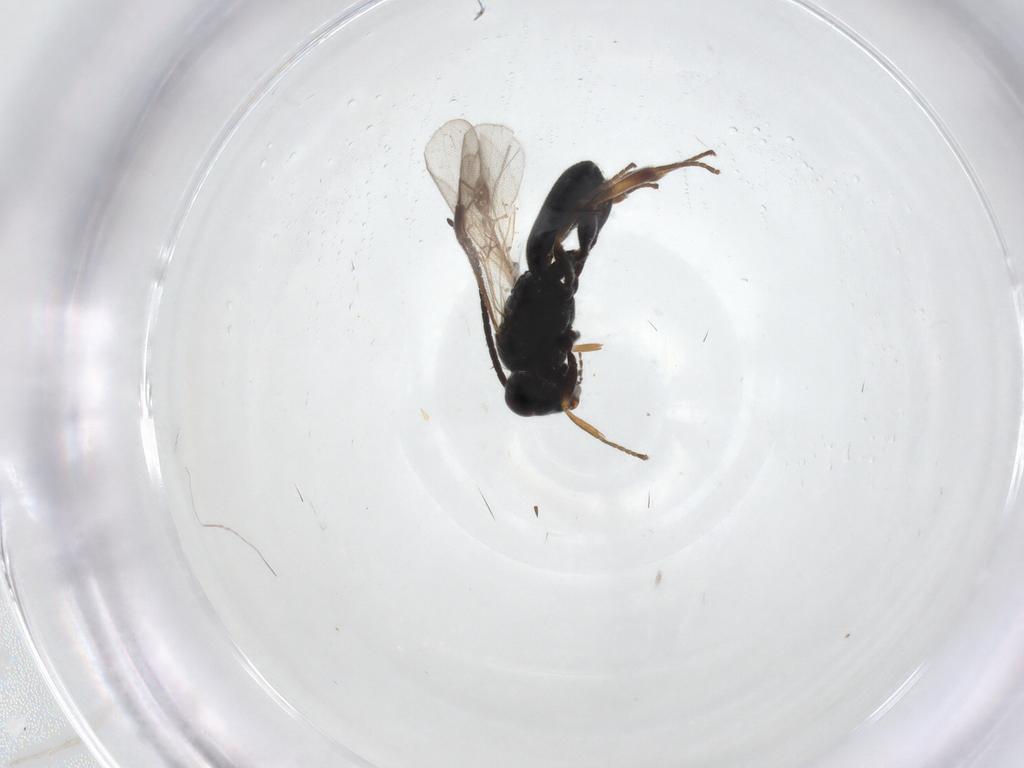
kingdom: Animalia
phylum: Arthropoda
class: Insecta
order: Hymenoptera
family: Braconidae
